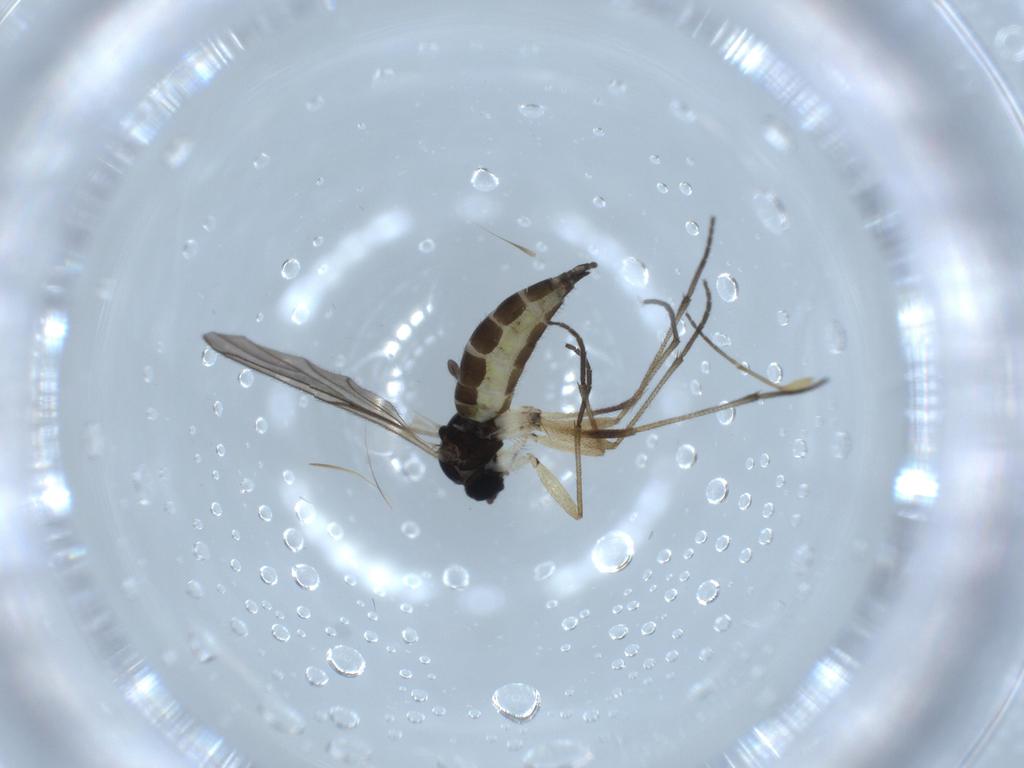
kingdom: Animalia
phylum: Arthropoda
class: Insecta
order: Diptera
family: Sciaridae
